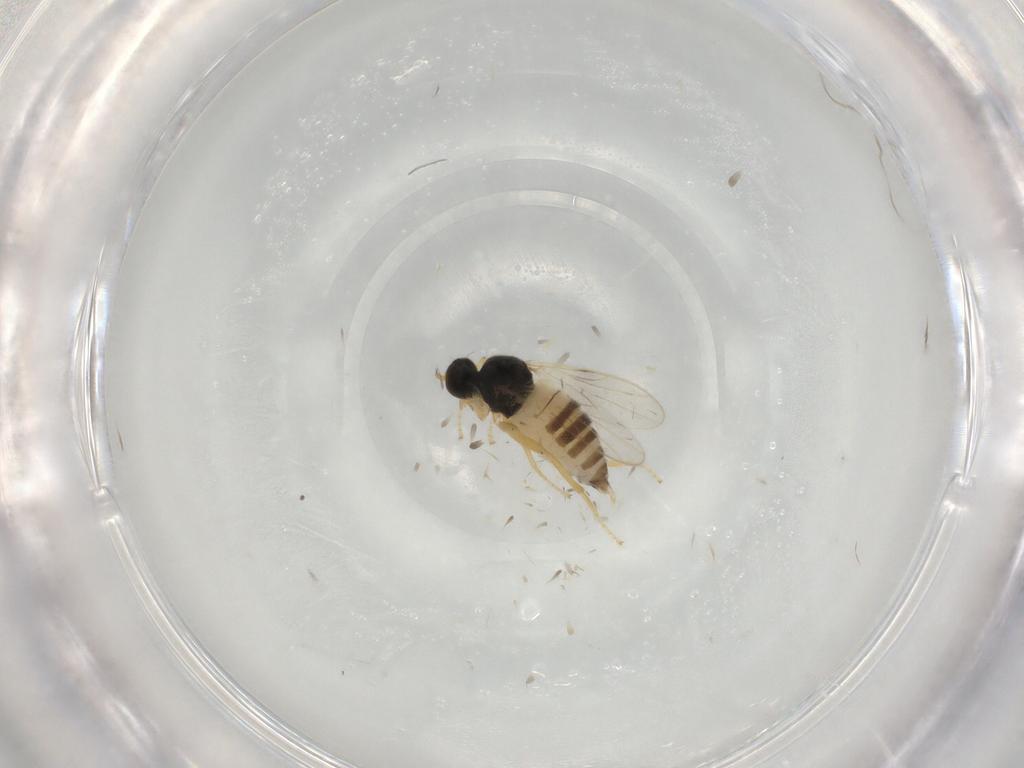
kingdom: Animalia
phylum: Arthropoda
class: Insecta
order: Diptera
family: Hybotidae
